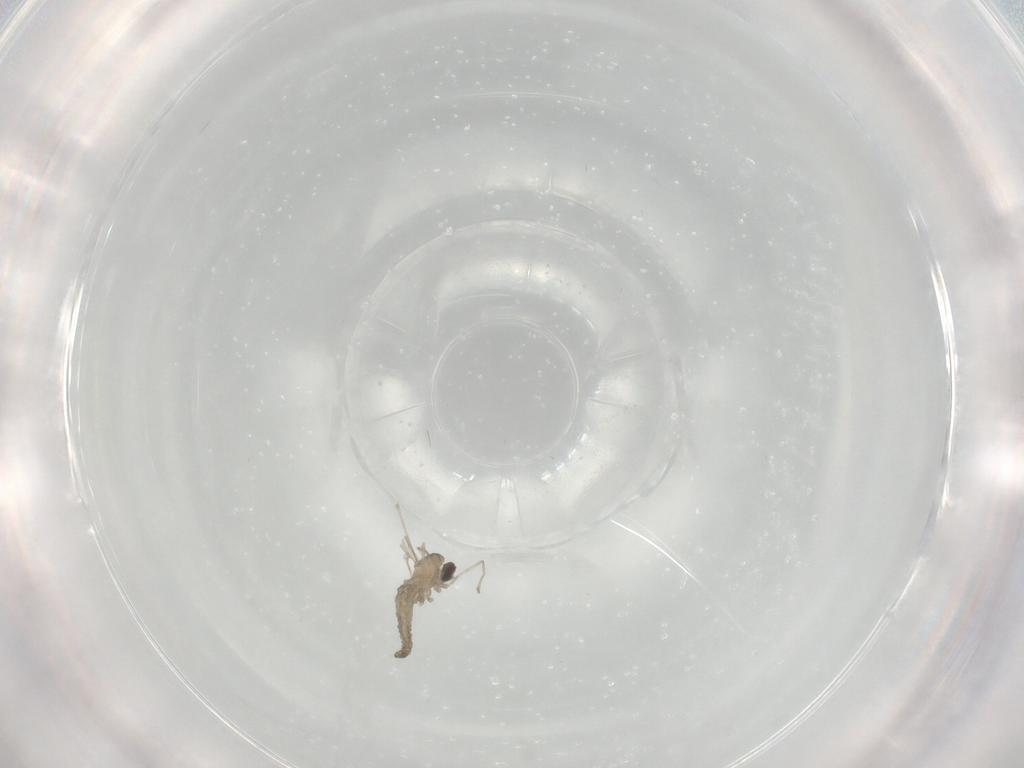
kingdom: Animalia
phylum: Arthropoda
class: Insecta
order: Diptera
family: Cecidomyiidae
